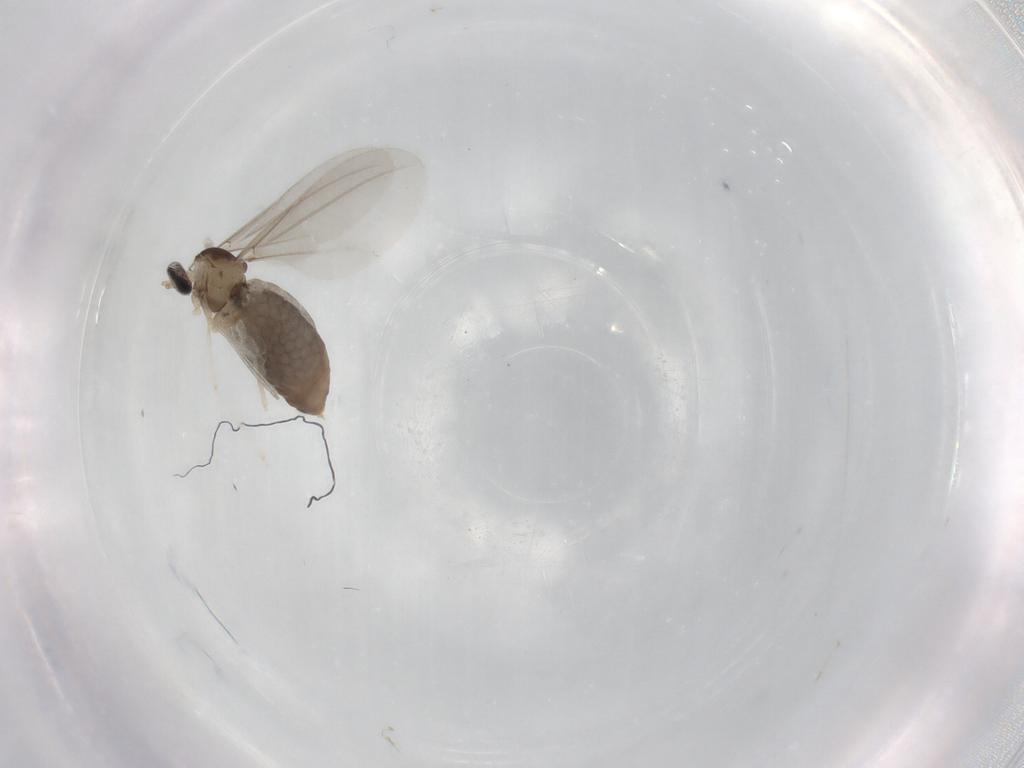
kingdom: Animalia
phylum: Arthropoda
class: Insecta
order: Diptera
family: Cecidomyiidae
